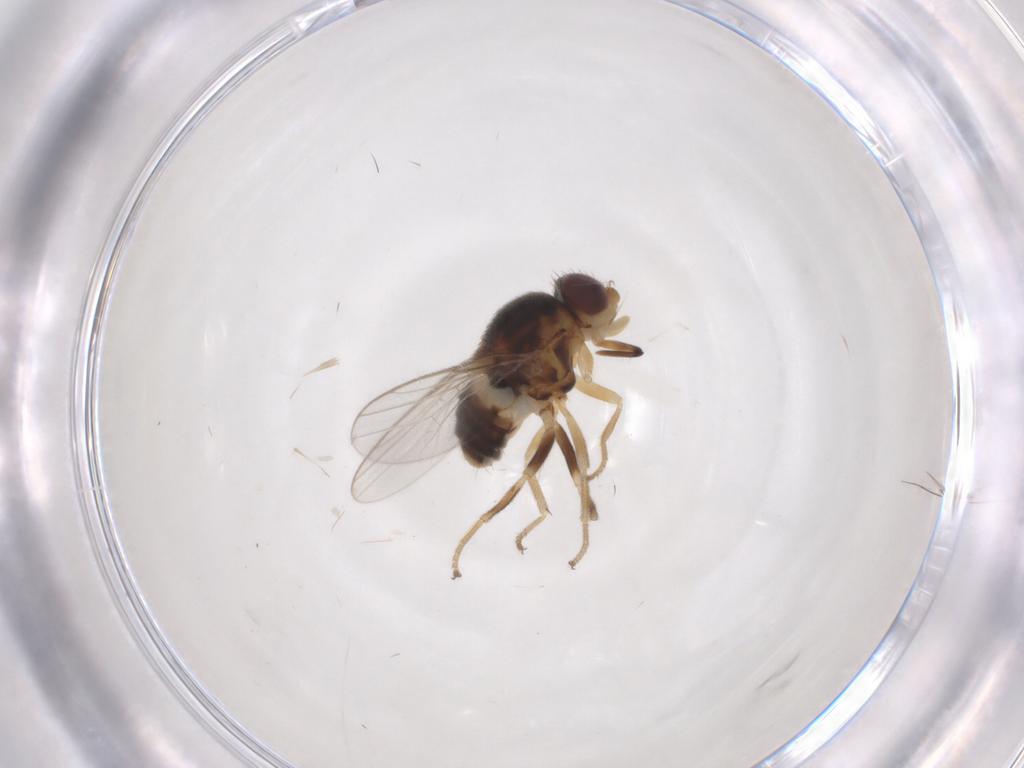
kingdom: Animalia
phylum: Arthropoda
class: Insecta
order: Diptera
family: Chloropidae
